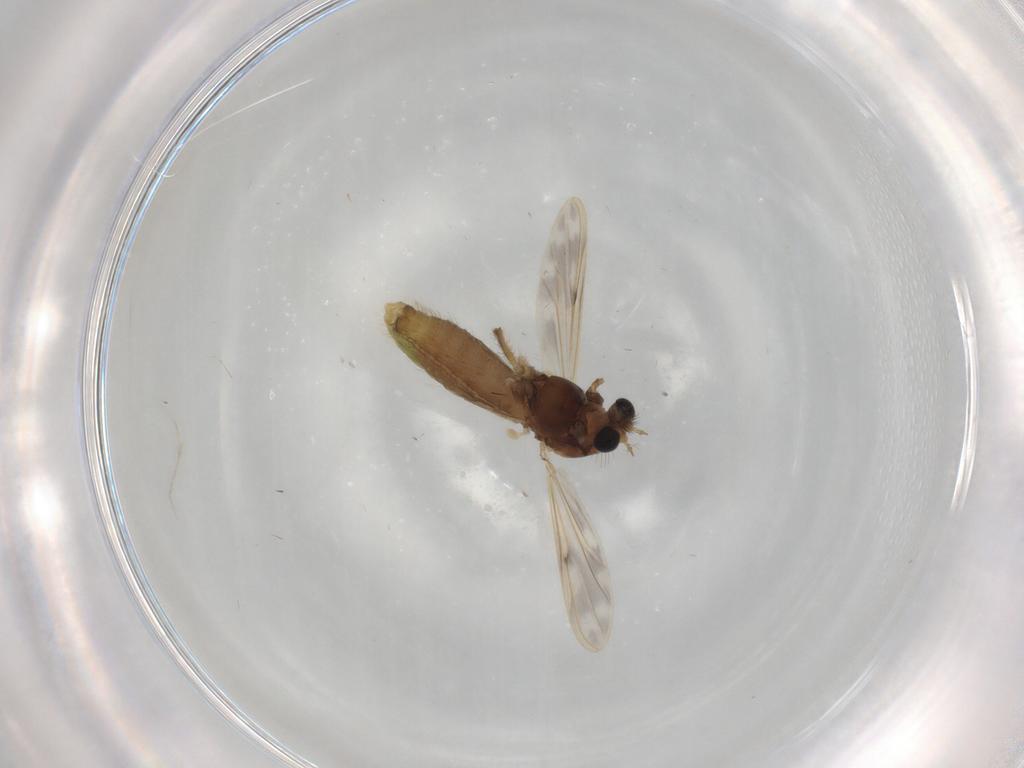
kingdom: Animalia
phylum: Arthropoda
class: Insecta
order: Diptera
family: Chironomidae
